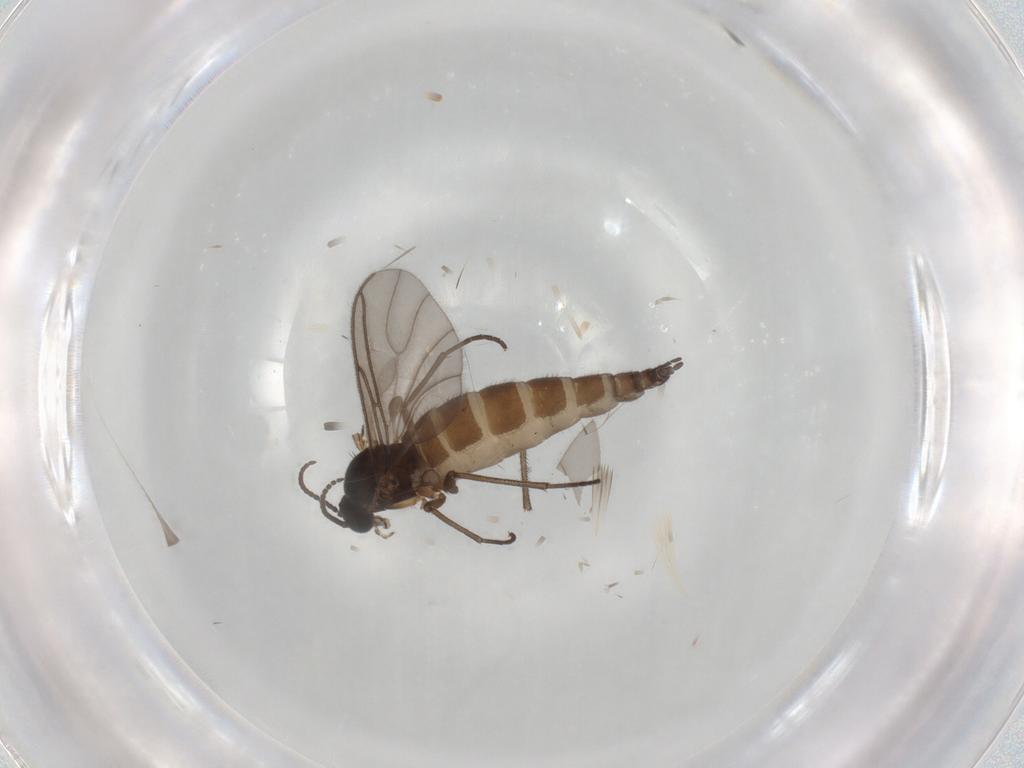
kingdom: Animalia
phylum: Arthropoda
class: Insecta
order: Diptera
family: Sciaridae
